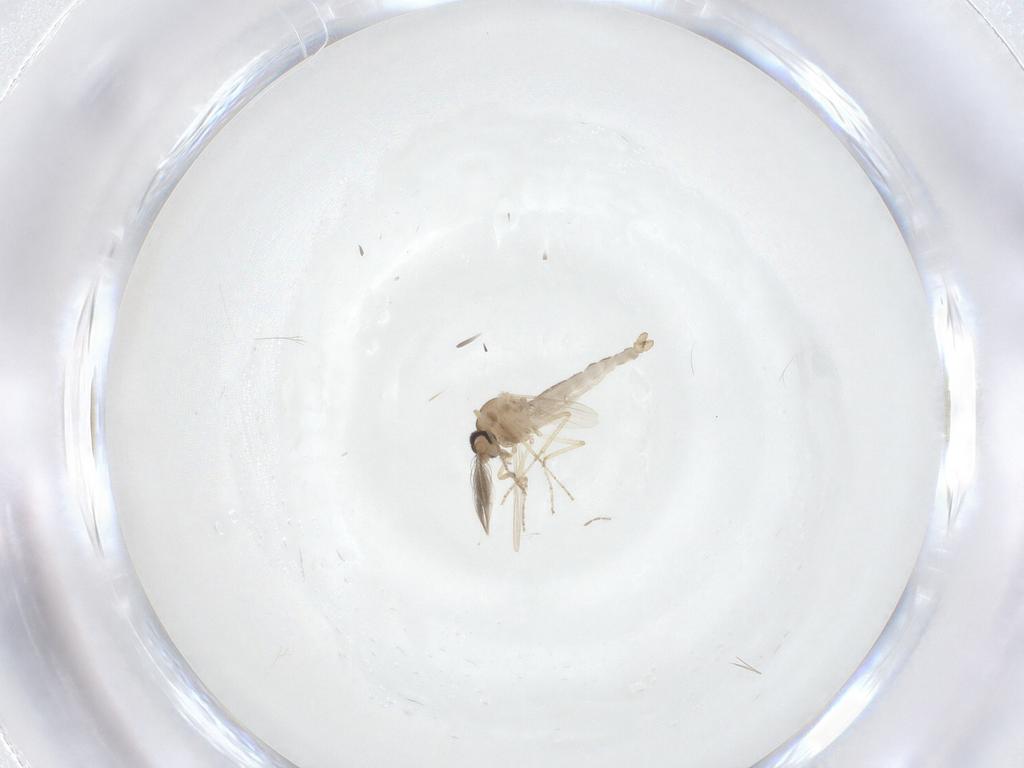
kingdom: Animalia
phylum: Arthropoda
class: Insecta
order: Diptera
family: Ceratopogonidae
